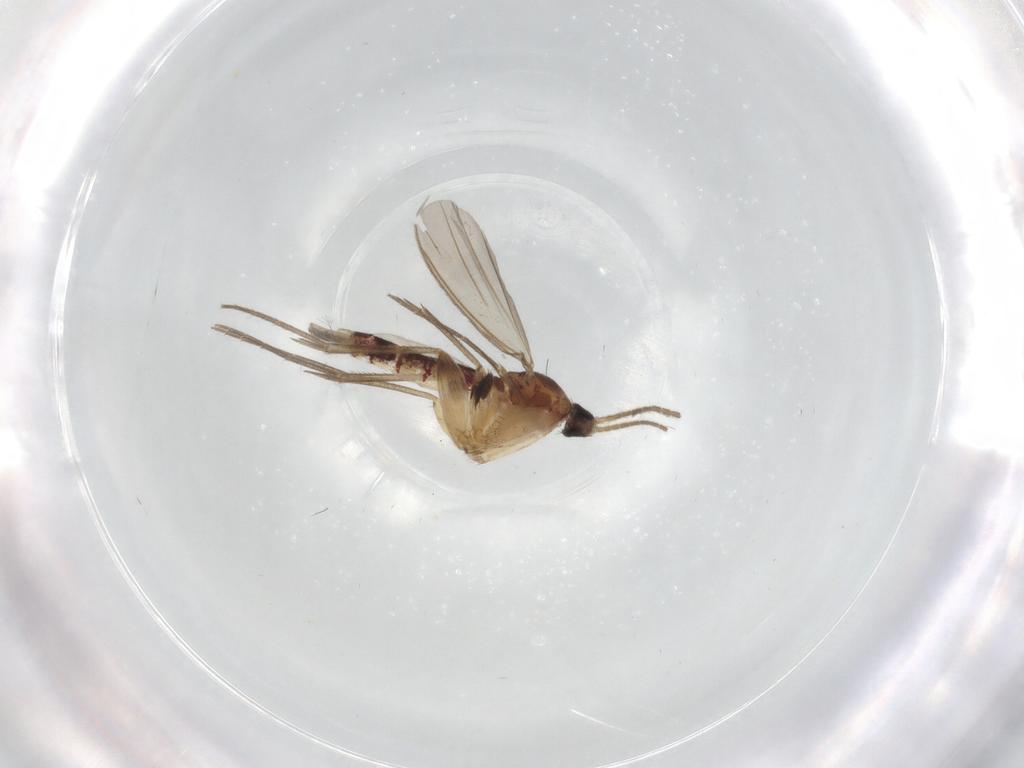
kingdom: Animalia
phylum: Arthropoda
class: Insecta
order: Diptera
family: Mycetophilidae
